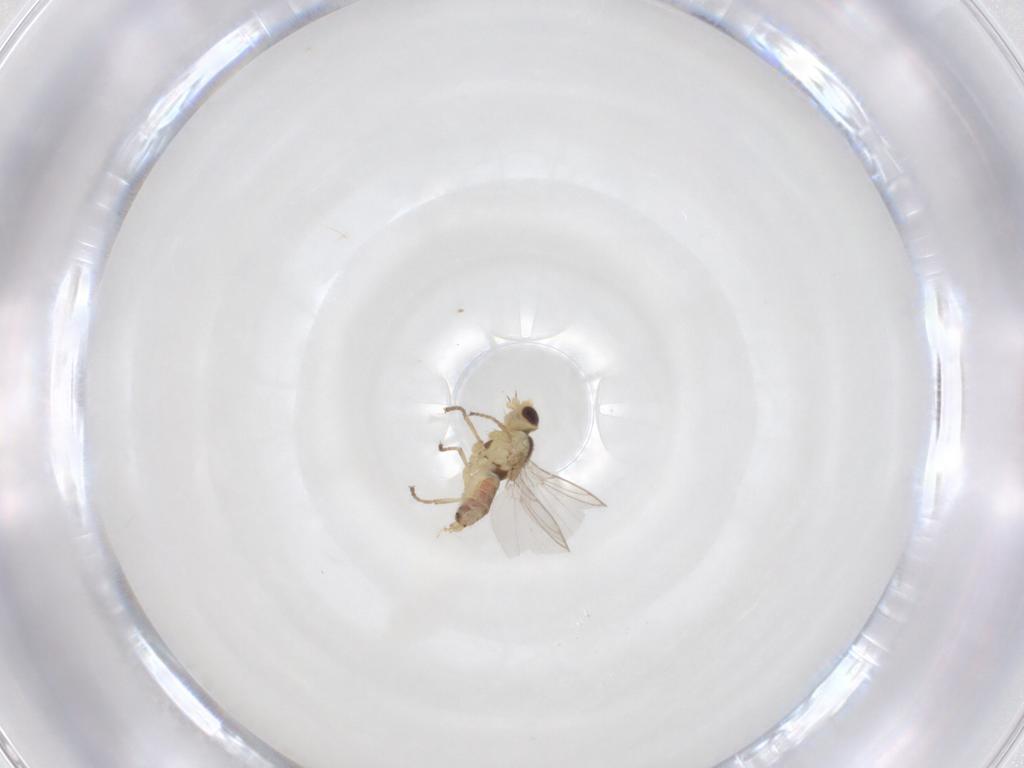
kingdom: Animalia
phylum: Arthropoda
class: Insecta
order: Diptera
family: Agromyzidae
